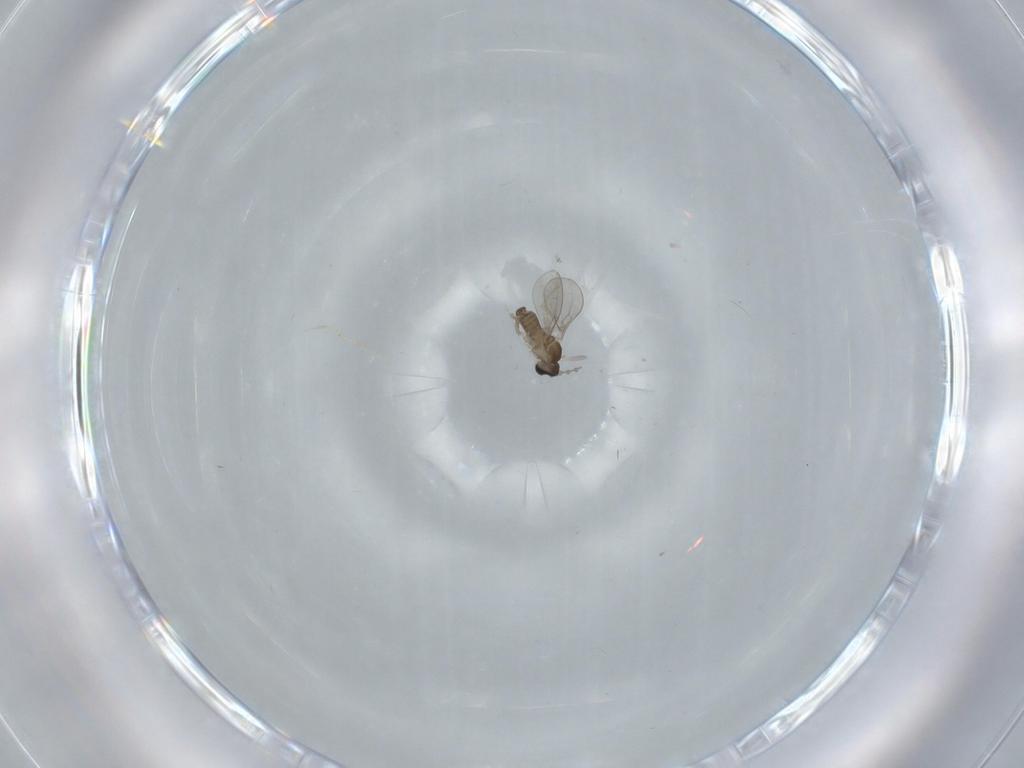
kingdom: Animalia
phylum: Arthropoda
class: Insecta
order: Diptera
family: Cecidomyiidae
